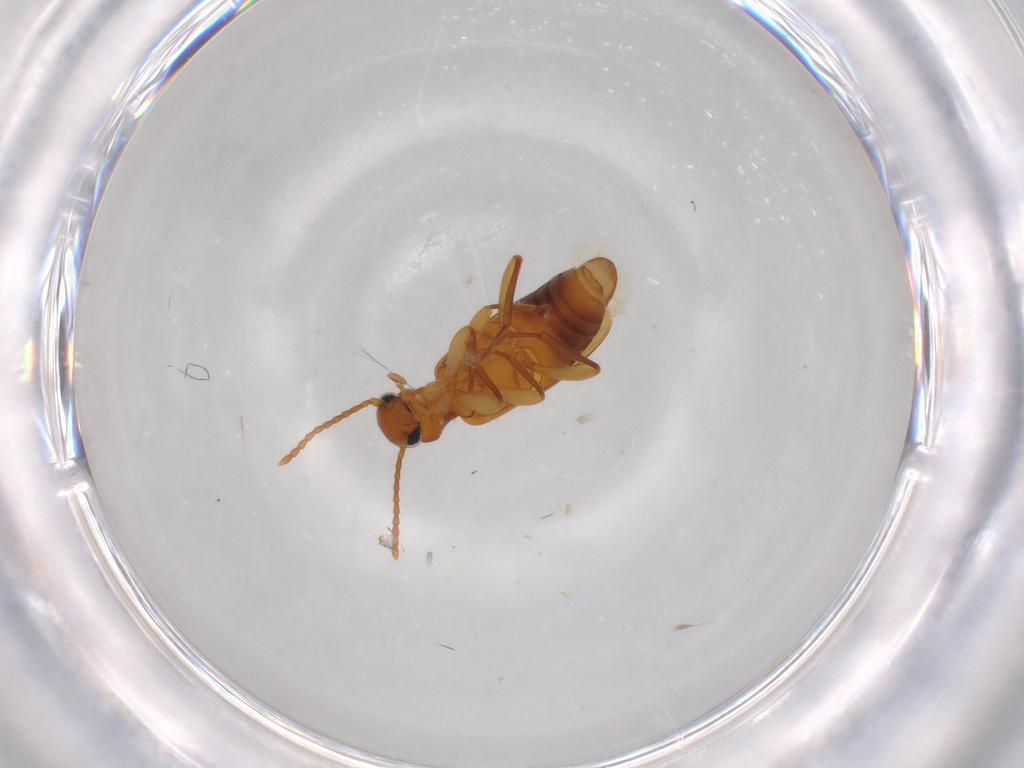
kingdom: Animalia
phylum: Arthropoda
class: Insecta
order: Coleoptera
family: Anthicidae
